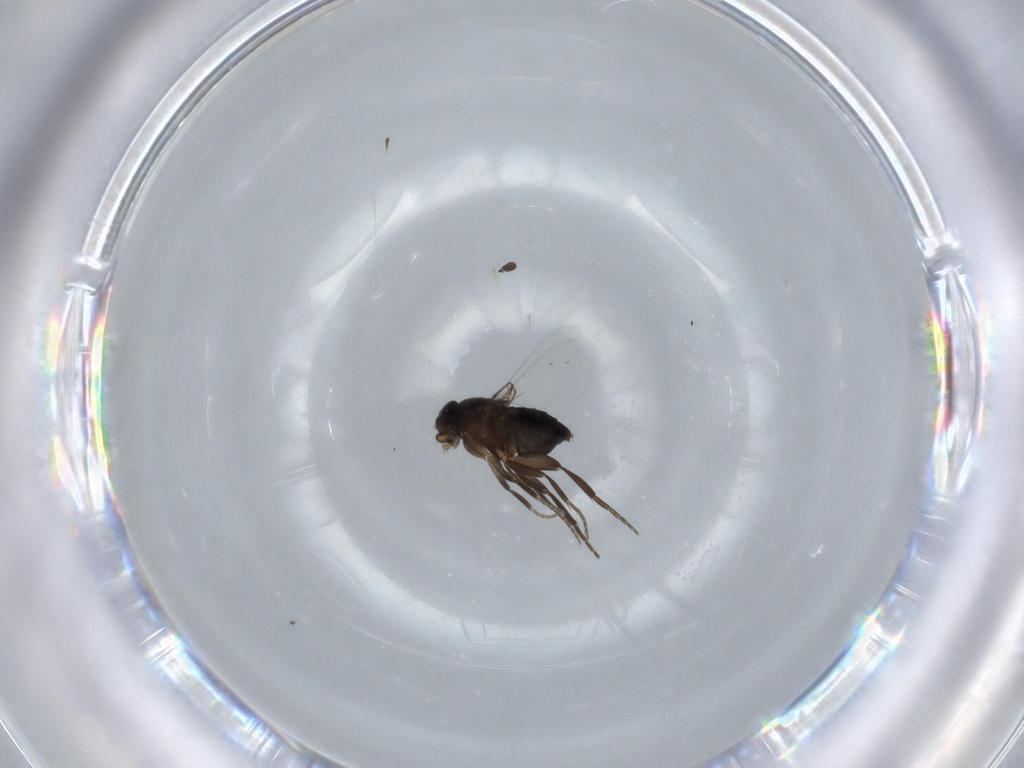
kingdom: Animalia
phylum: Arthropoda
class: Insecta
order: Diptera
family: Phoridae
